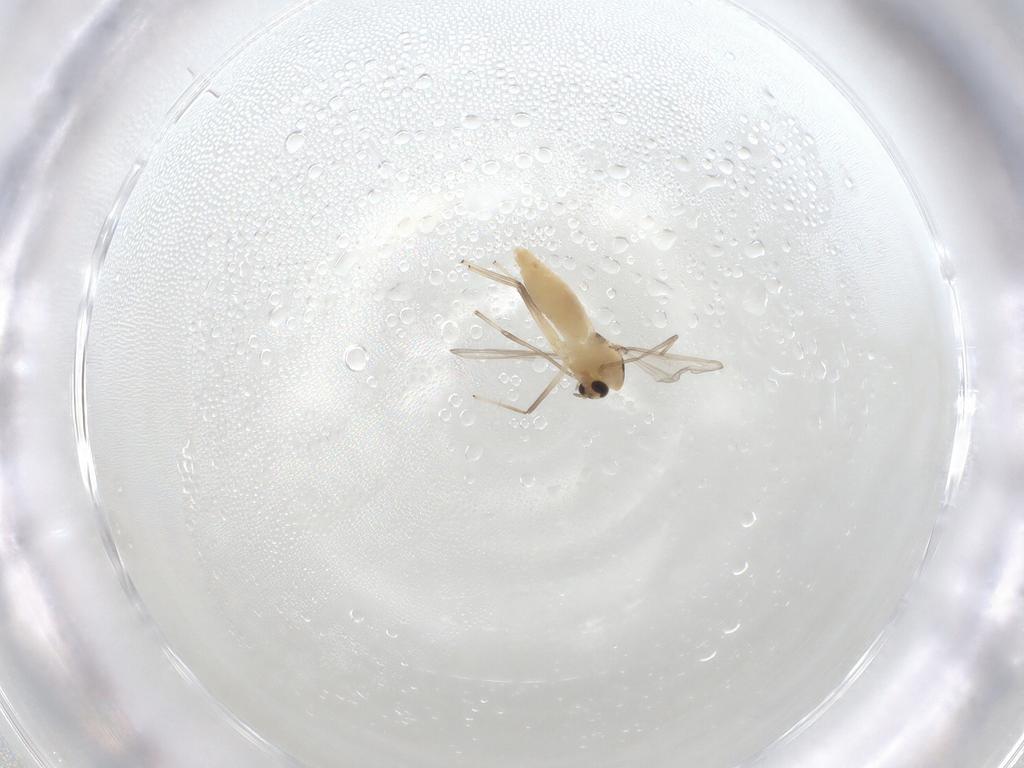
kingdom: Animalia
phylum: Arthropoda
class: Insecta
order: Diptera
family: Chironomidae
